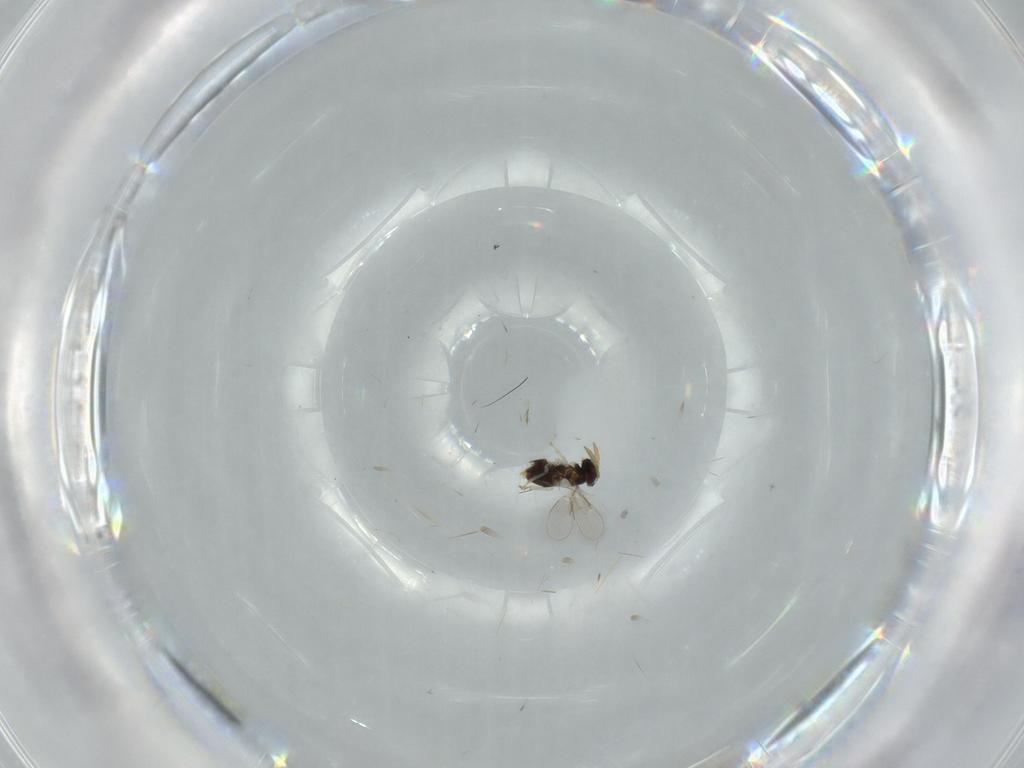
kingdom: Animalia
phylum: Arthropoda
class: Insecta
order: Hymenoptera
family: Aphelinidae
